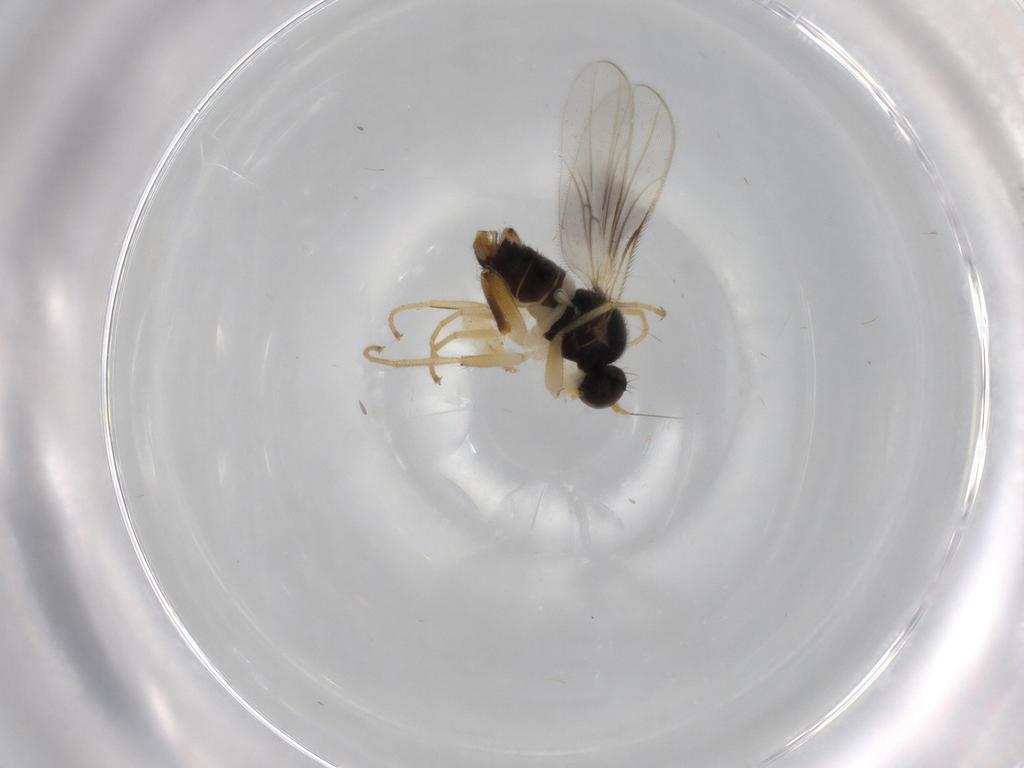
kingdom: Animalia
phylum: Arthropoda
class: Insecta
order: Diptera
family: Hybotidae
